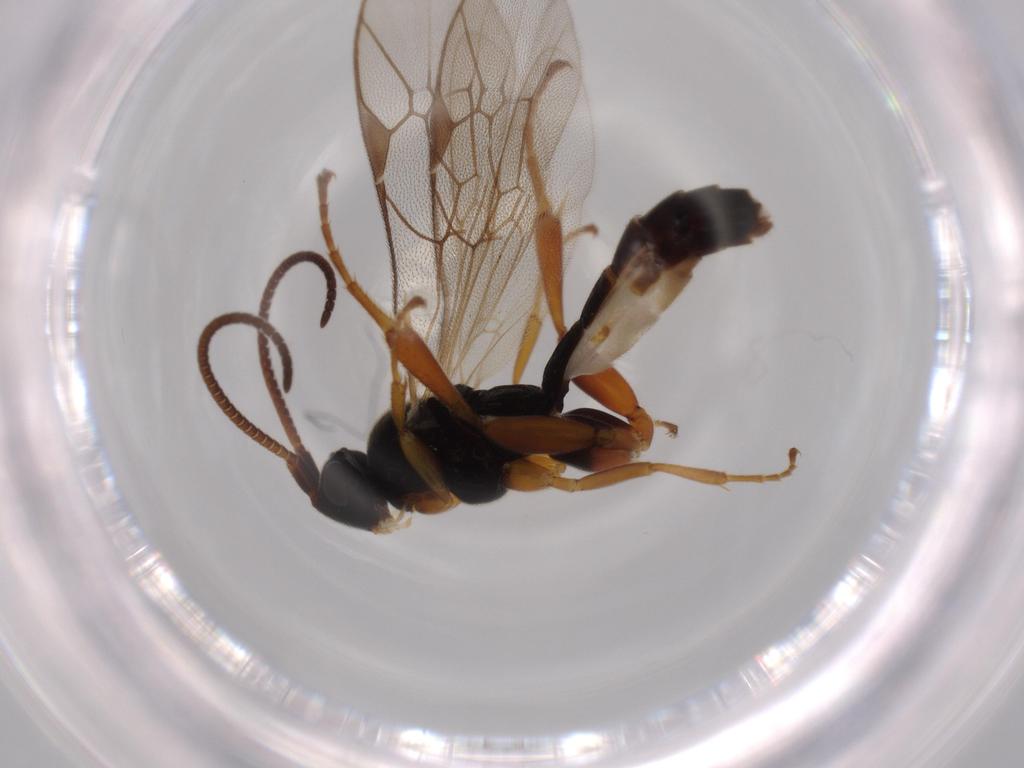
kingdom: Animalia
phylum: Arthropoda
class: Insecta
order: Hymenoptera
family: Ichneumonidae
